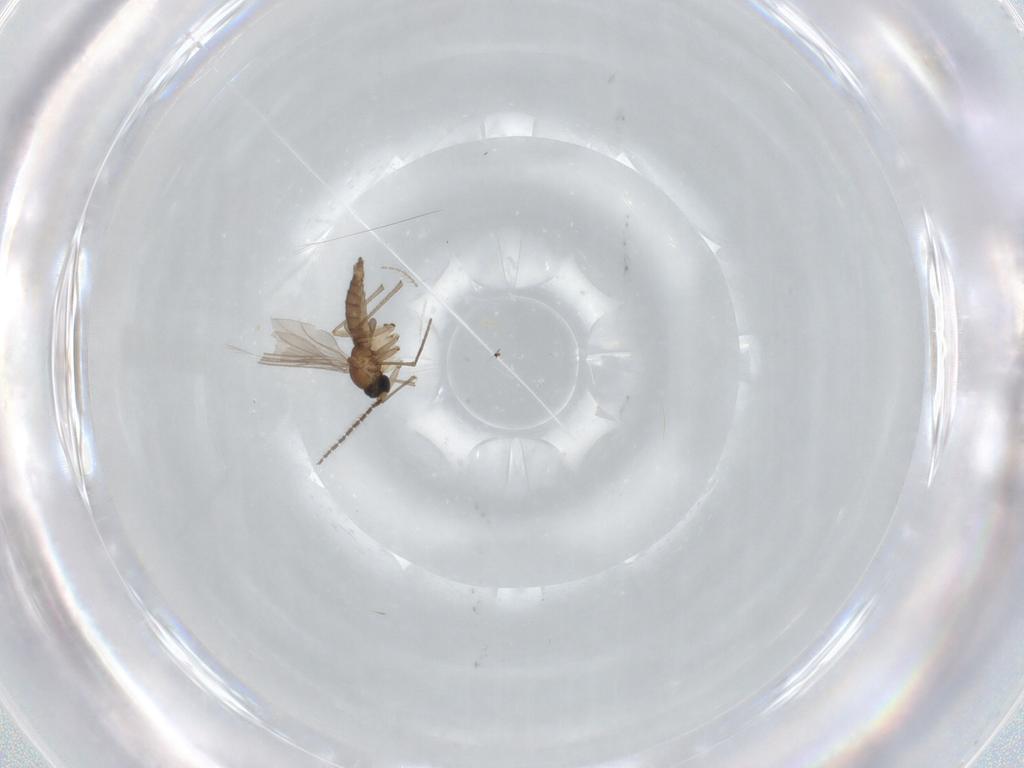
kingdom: Animalia
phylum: Arthropoda
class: Insecta
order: Diptera
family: Ceratopogonidae
